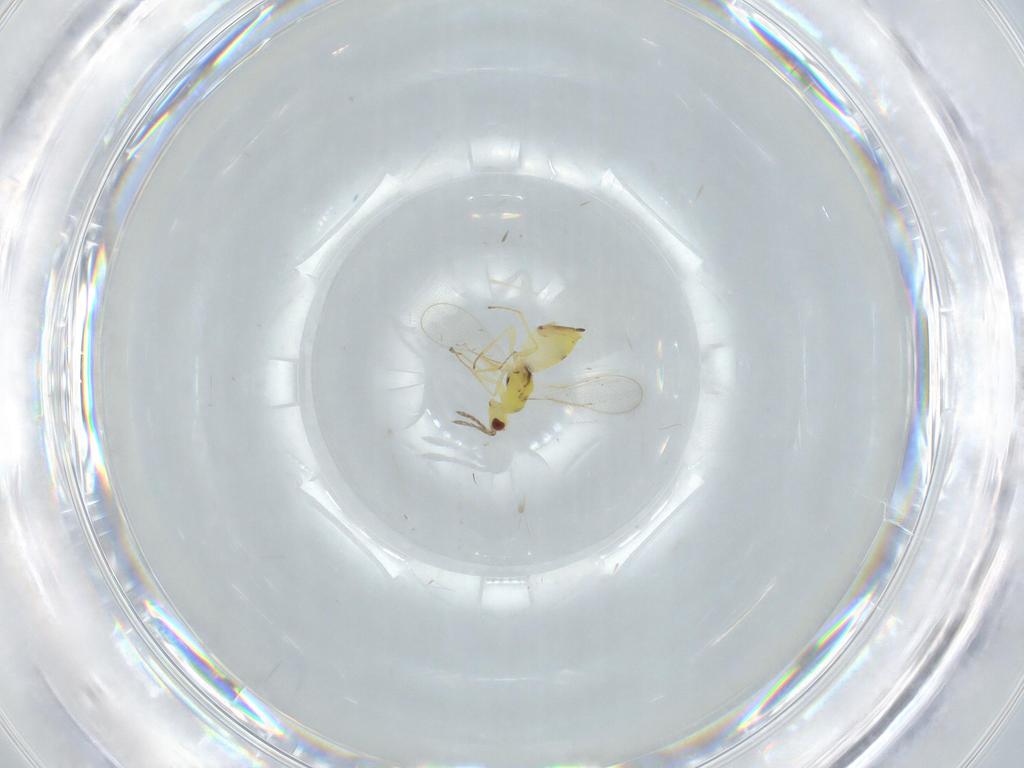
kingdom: Animalia
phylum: Arthropoda
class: Insecta
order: Hymenoptera
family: Eulophidae
